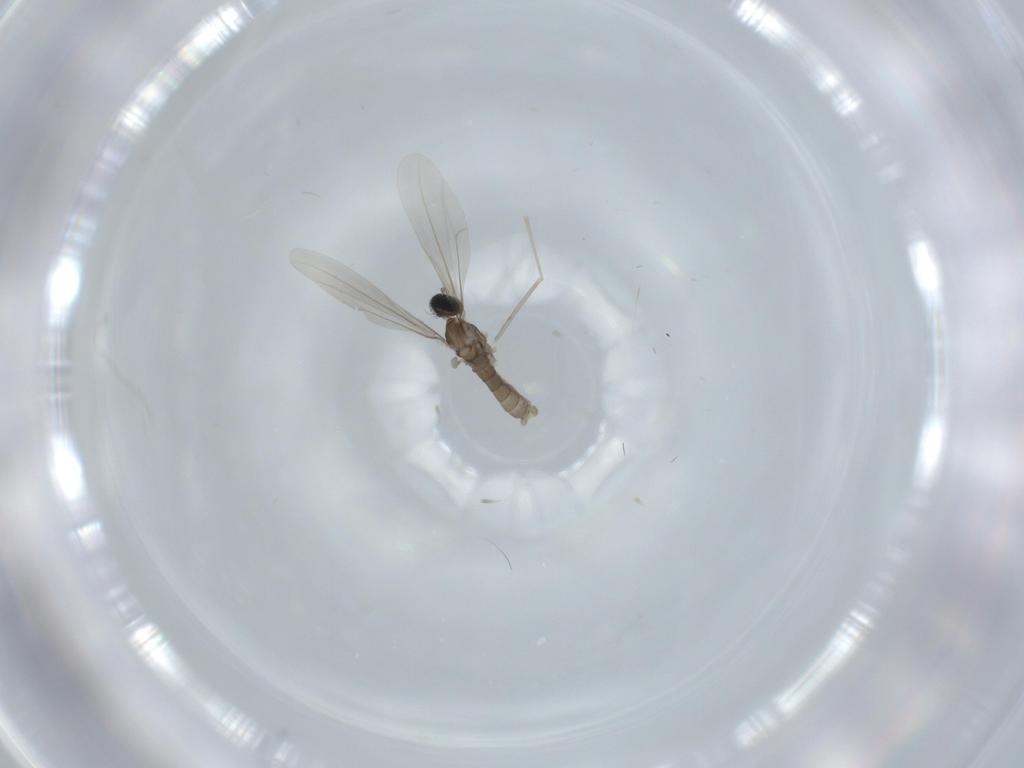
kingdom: Animalia
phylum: Arthropoda
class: Insecta
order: Diptera
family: Cecidomyiidae
